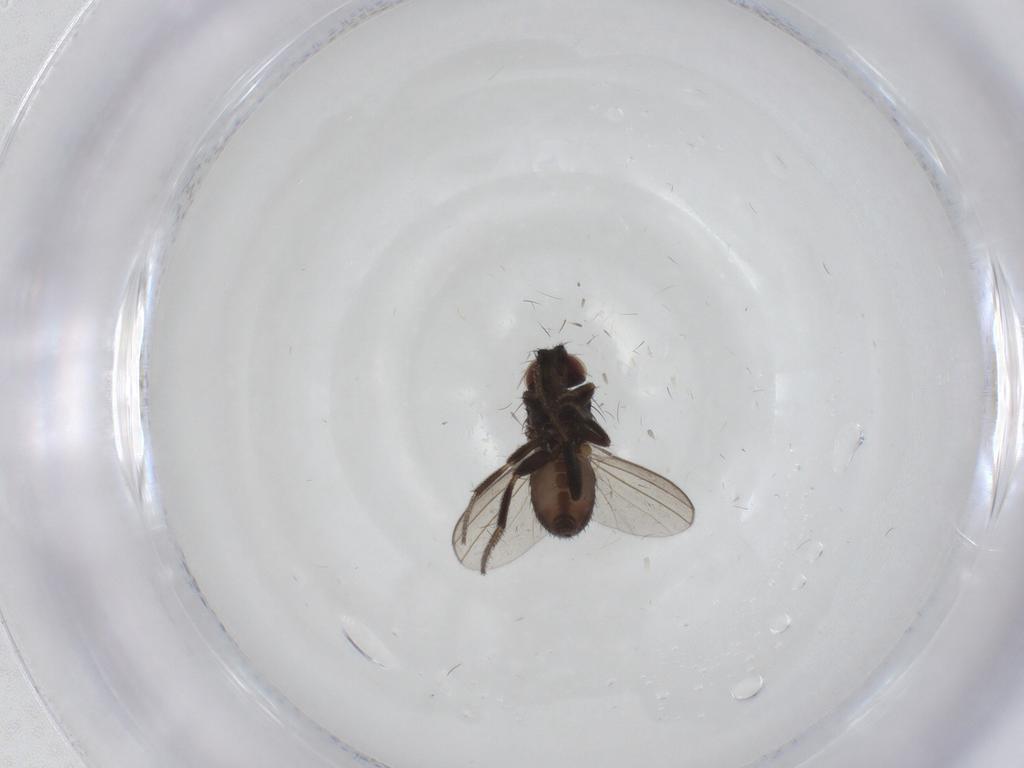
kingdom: Animalia
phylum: Arthropoda
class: Insecta
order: Diptera
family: Milichiidae
